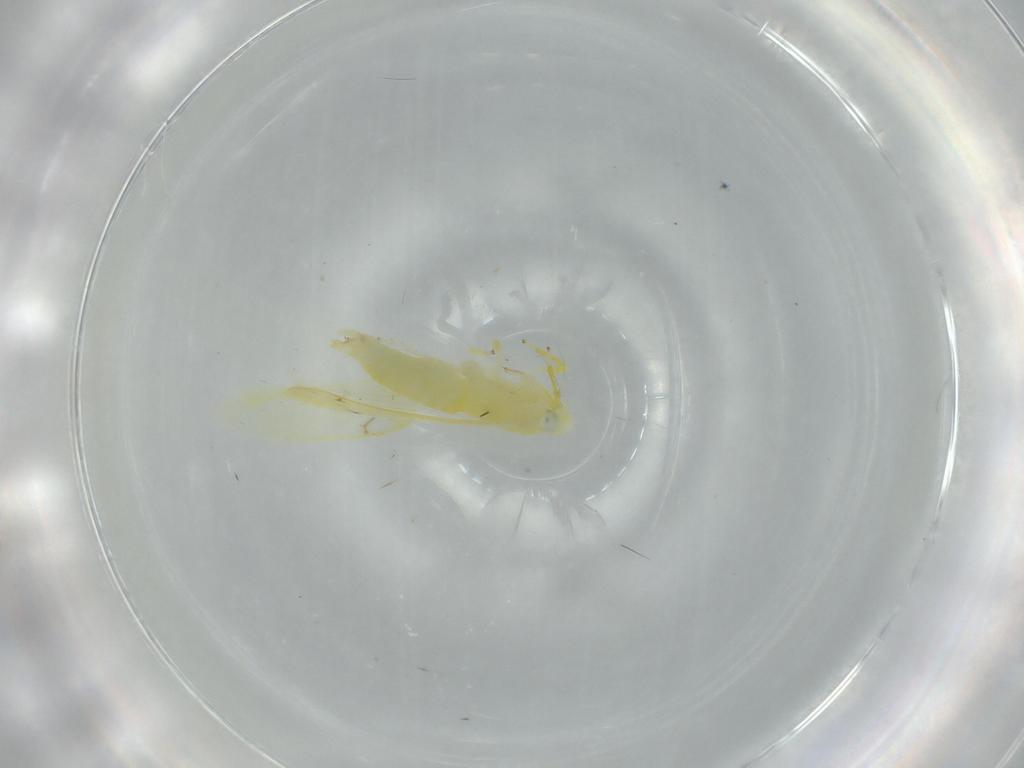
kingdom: Animalia
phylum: Arthropoda
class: Insecta
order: Hemiptera
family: Cicadellidae
